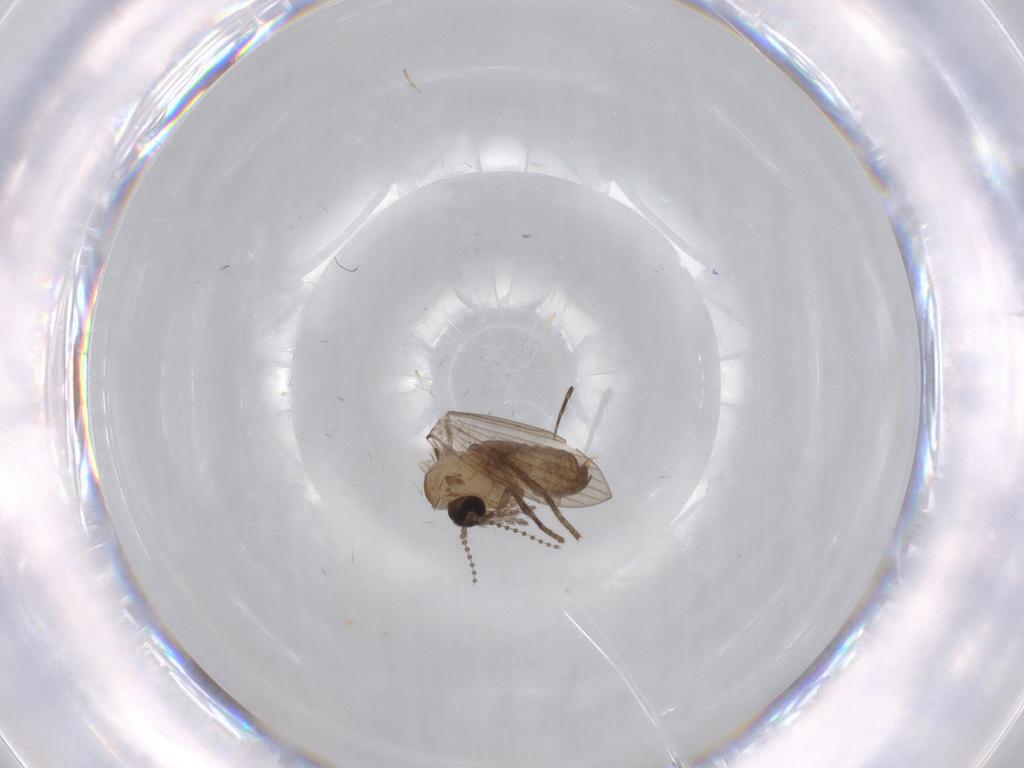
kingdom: Animalia
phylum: Arthropoda
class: Insecta
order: Diptera
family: Psychodidae
